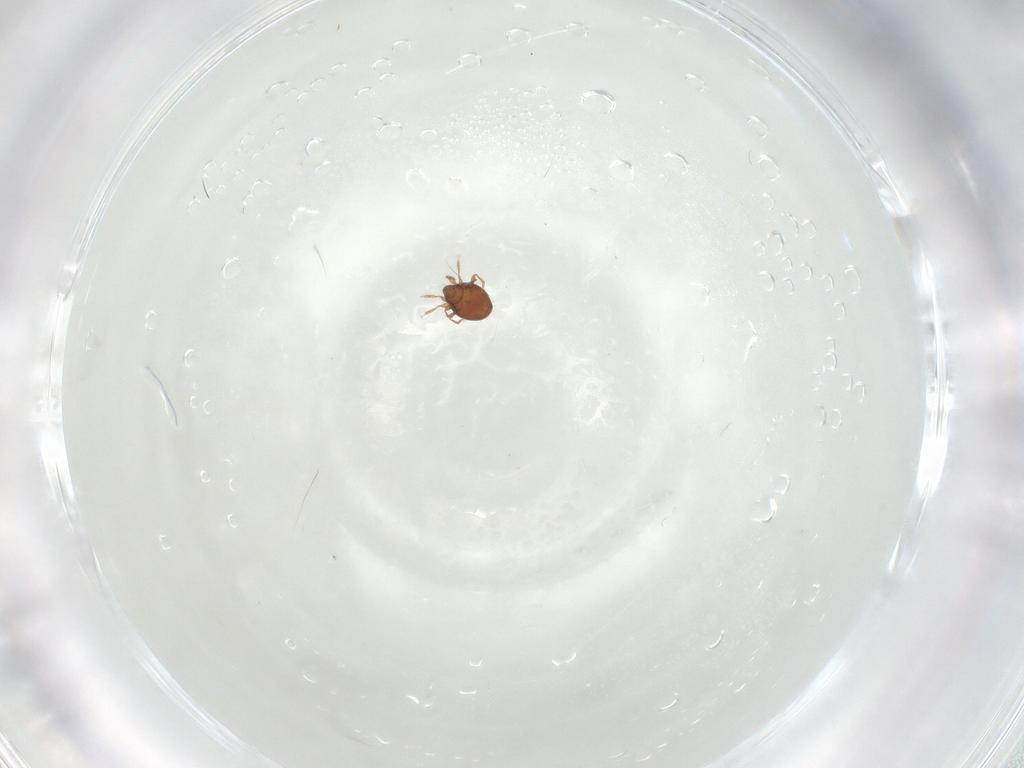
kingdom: Animalia
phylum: Arthropoda
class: Arachnida
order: Sarcoptiformes
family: Oribatulidae
